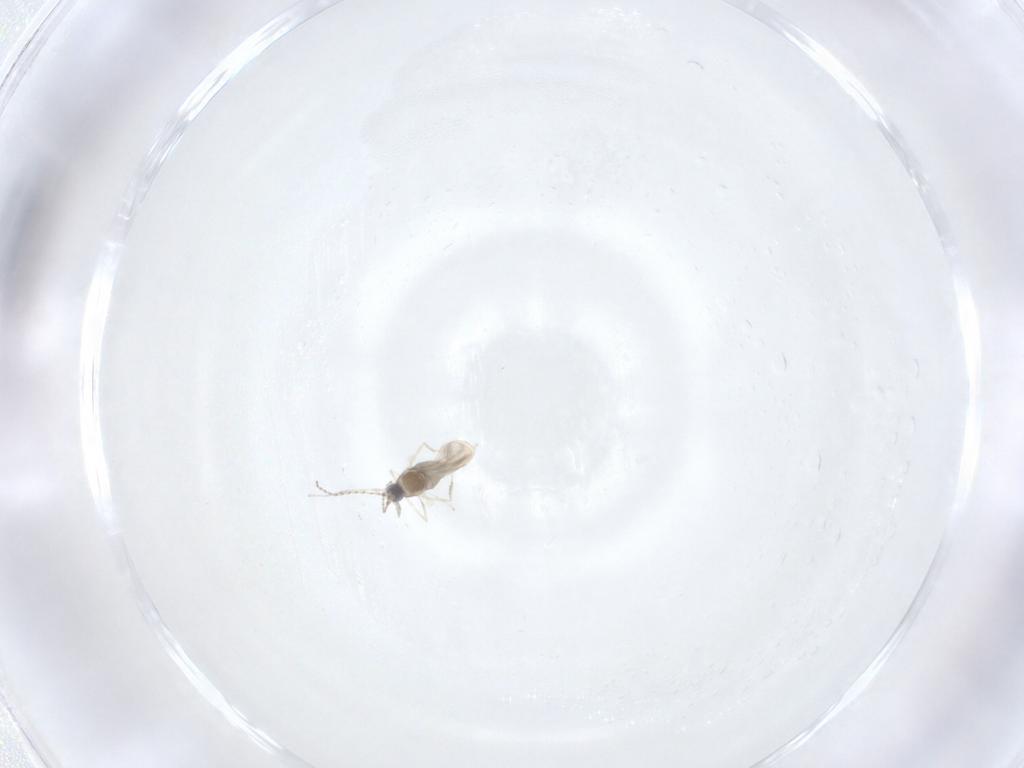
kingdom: Animalia
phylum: Arthropoda
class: Insecta
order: Diptera
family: Cecidomyiidae
